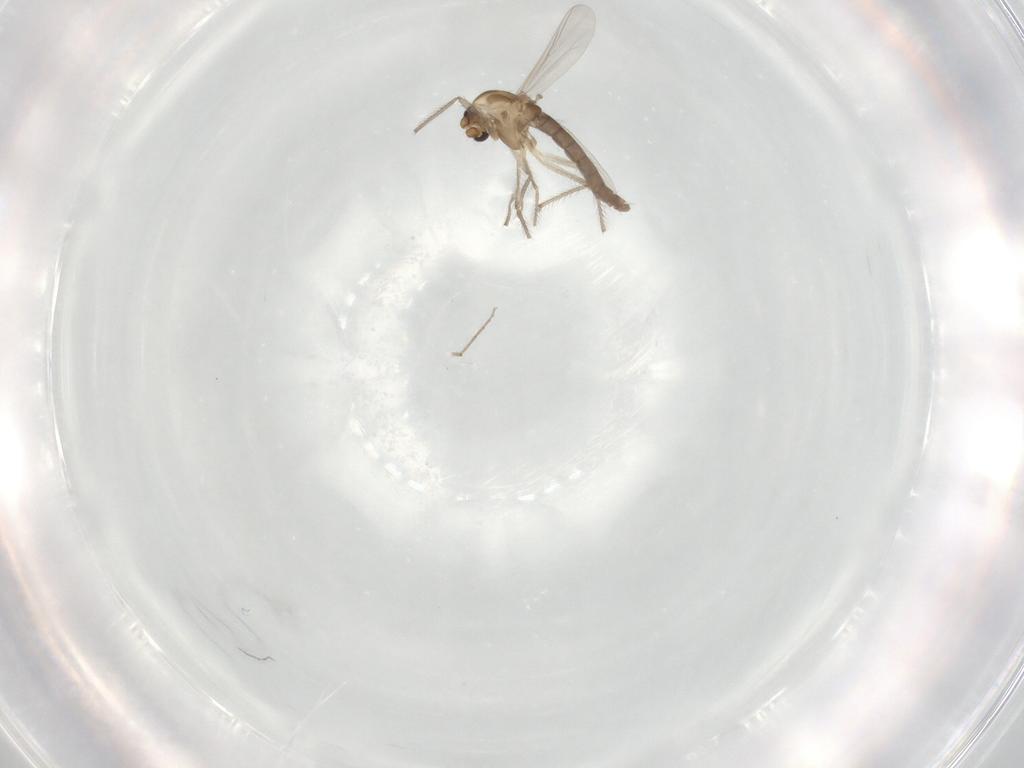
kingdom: Animalia
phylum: Arthropoda
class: Insecta
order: Diptera
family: Chironomidae
